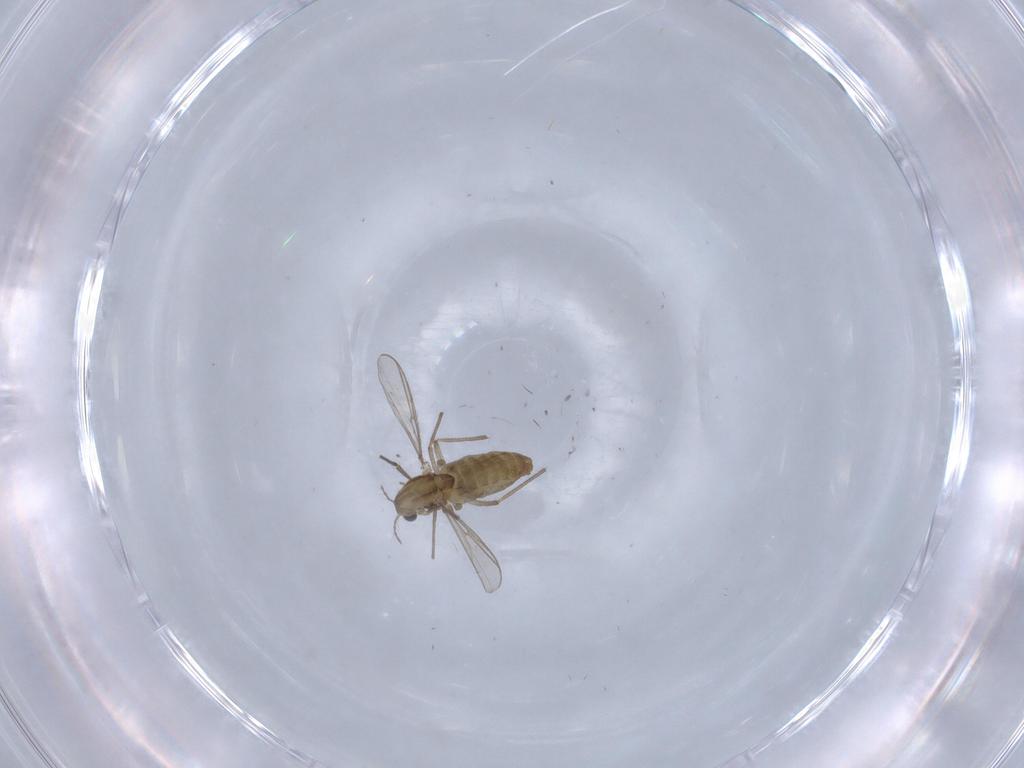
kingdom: Animalia
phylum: Arthropoda
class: Insecta
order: Diptera
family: Chironomidae
